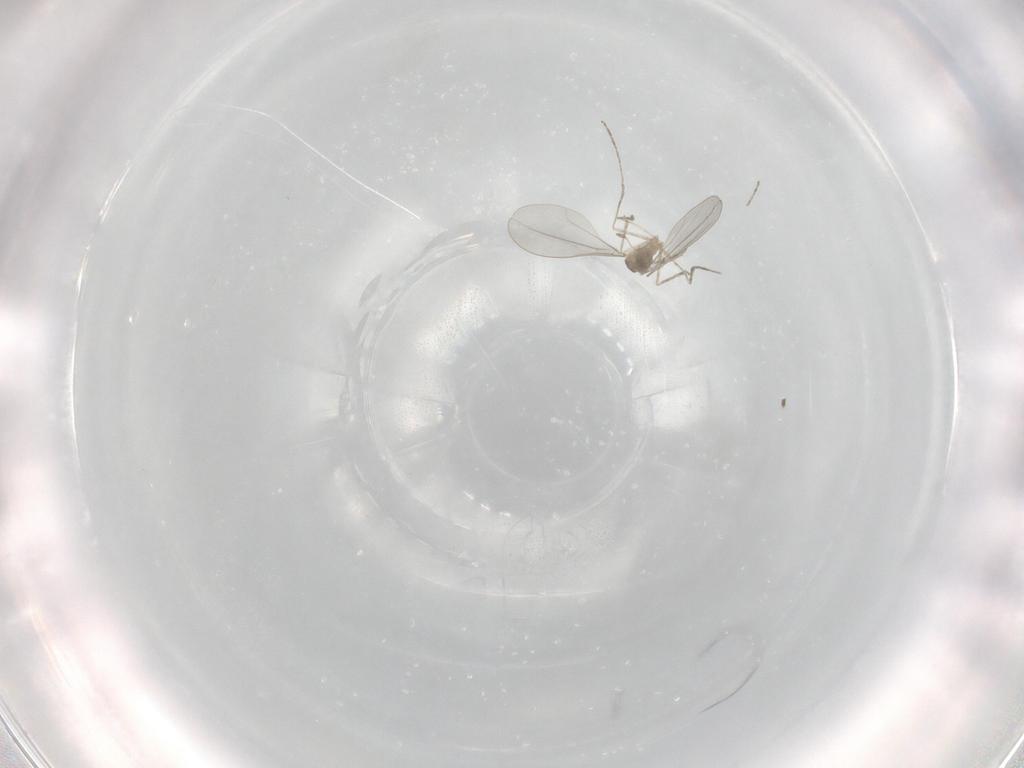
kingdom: Animalia
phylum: Arthropoda
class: Insecta
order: Diptera
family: Cecidomyiidae
